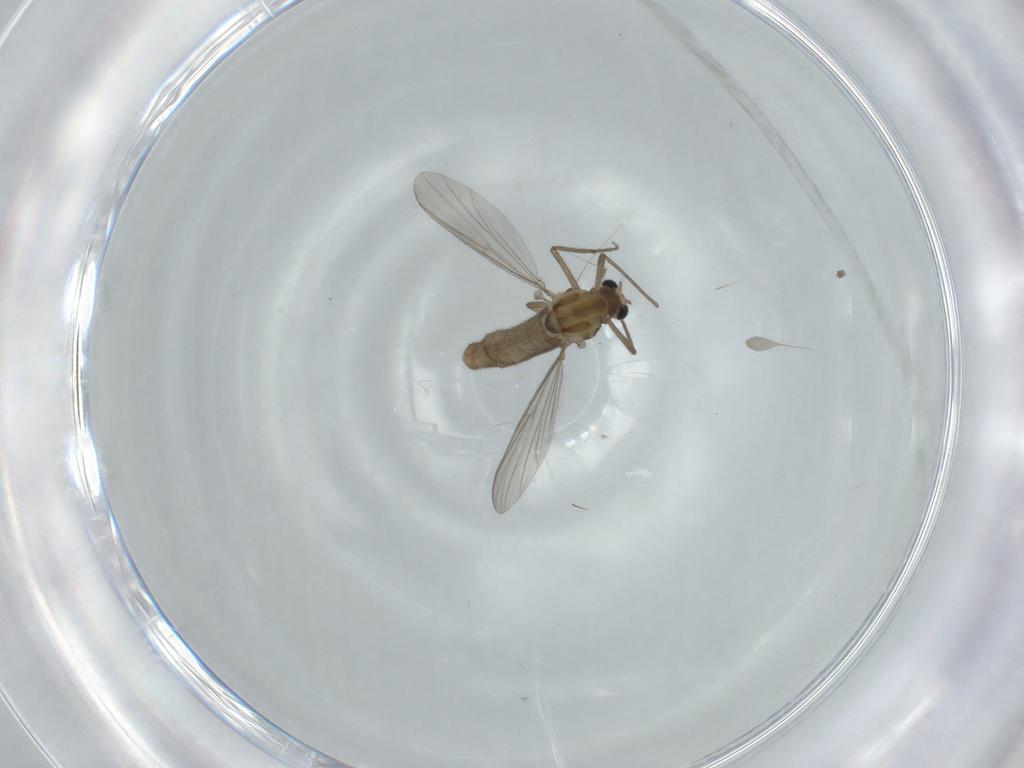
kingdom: Animalia
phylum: Arthropoda
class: Insecta
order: Diptera
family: Chironomidae
